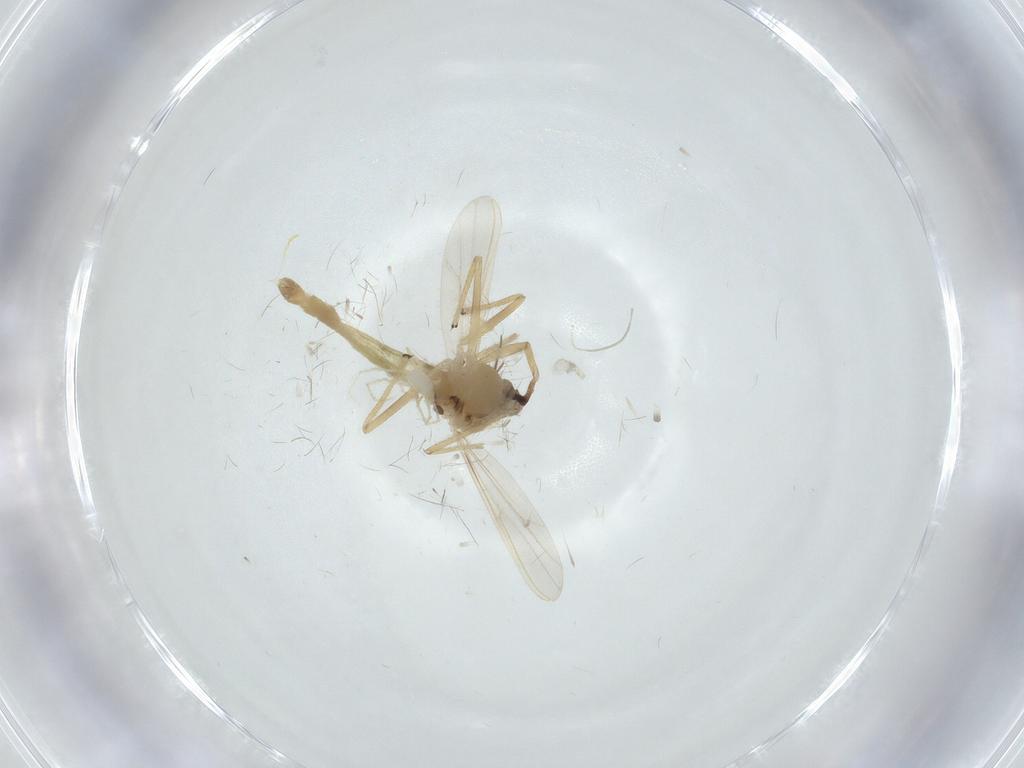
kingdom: Animalia
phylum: Arthropoda
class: Insecta
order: Diptera
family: Chironomidae
